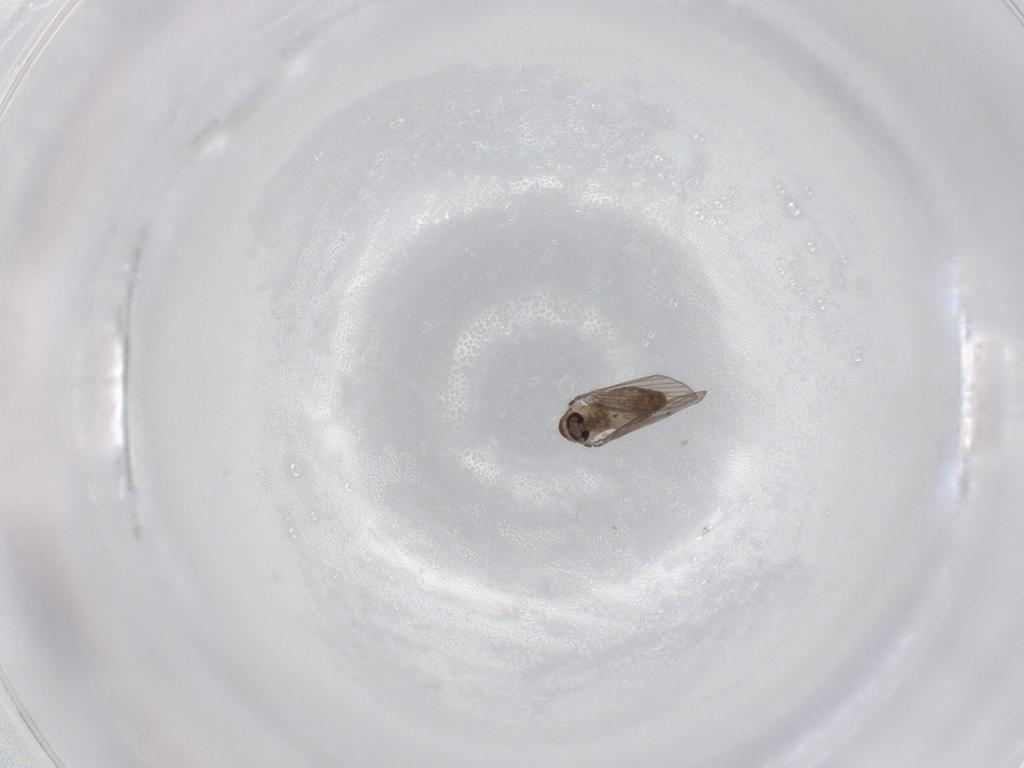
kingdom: Animalia
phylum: Arthropoda
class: Insecta
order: Diptera
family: Psychodidae
